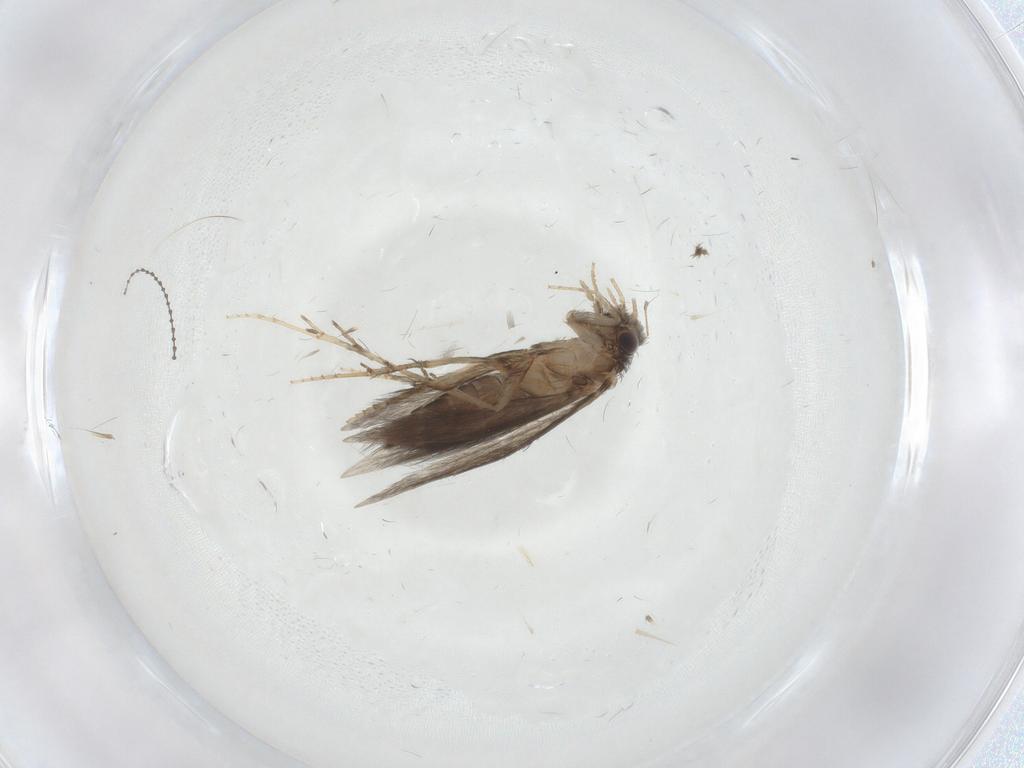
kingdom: Animalia
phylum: Arthropoda
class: Insecta
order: Trichoptera
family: Hydroptilidae
